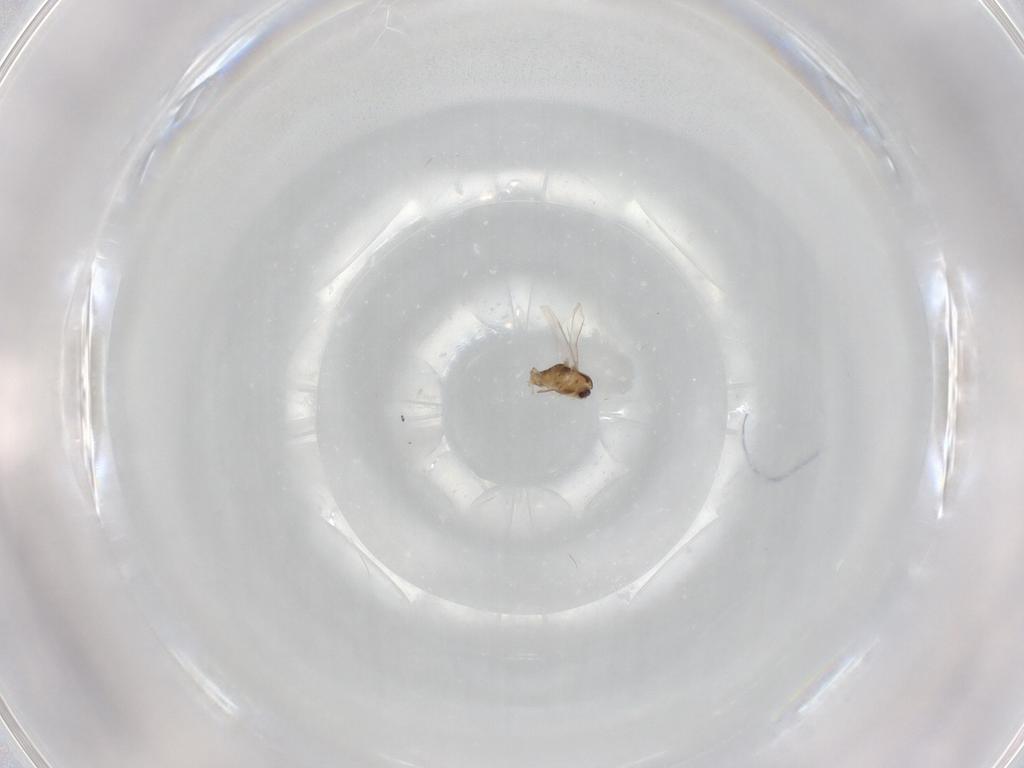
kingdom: Animalia
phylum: Arthropoda
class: Insecta
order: Diptera
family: Chironomidae
